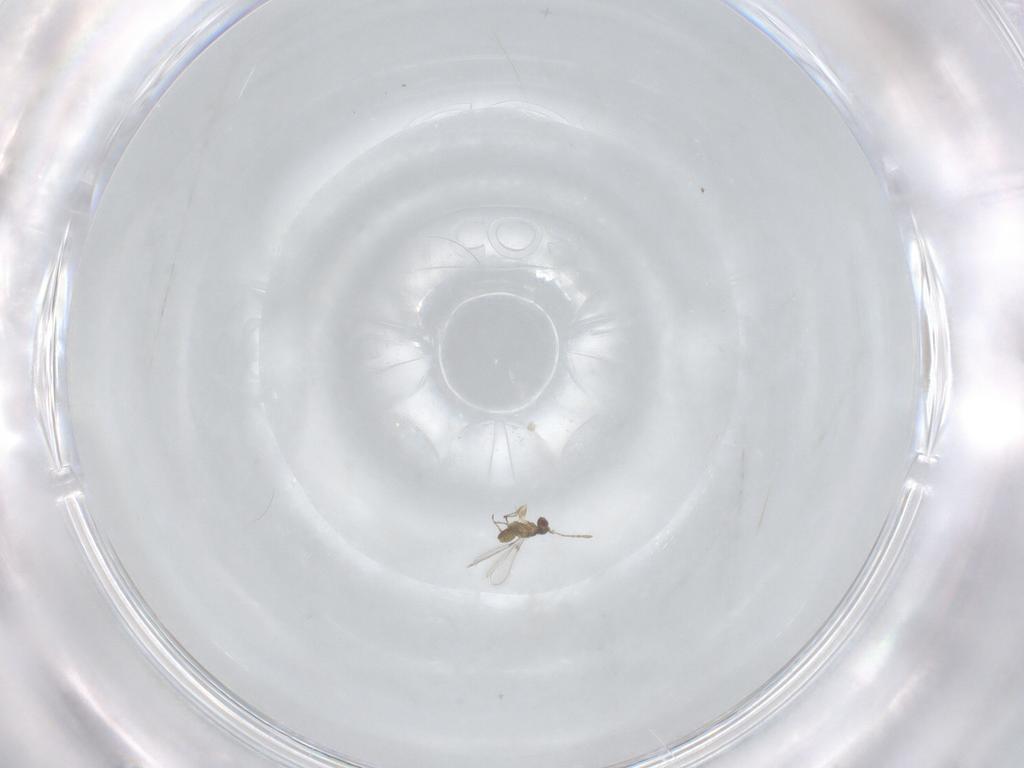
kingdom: Animalia
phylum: Arthropoda
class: Insecta
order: Hymenoptera
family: Mymaridae
